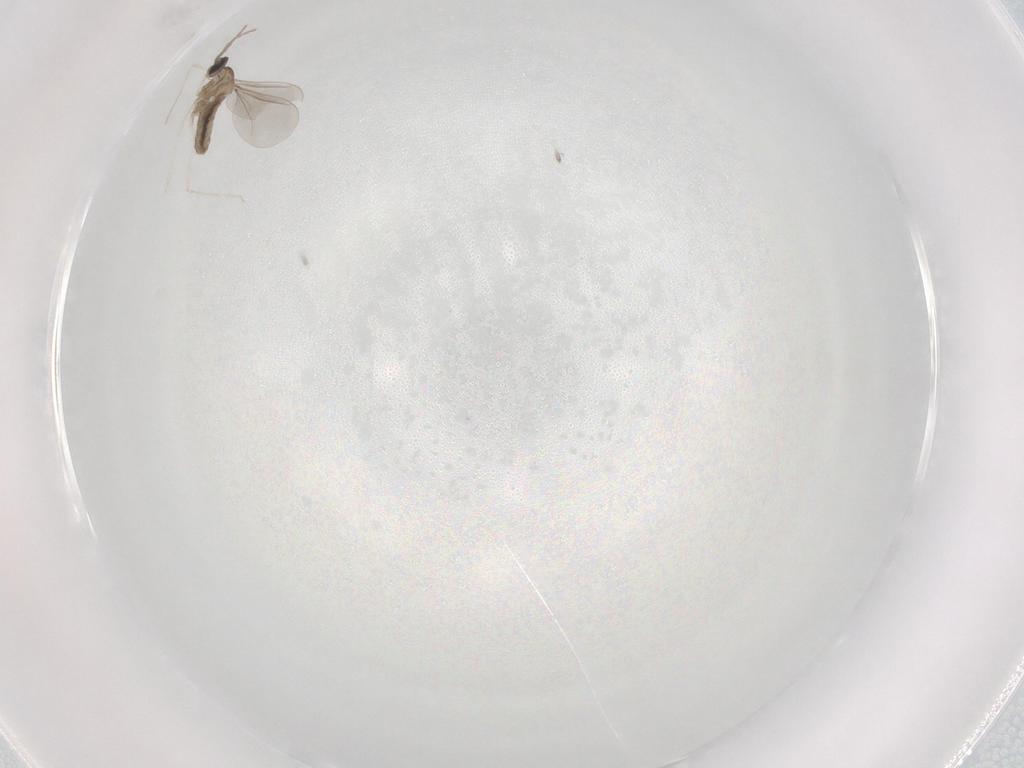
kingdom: Animalia
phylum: Arthropoda
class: Insecta
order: Diptera
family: Cecidomyiidae
